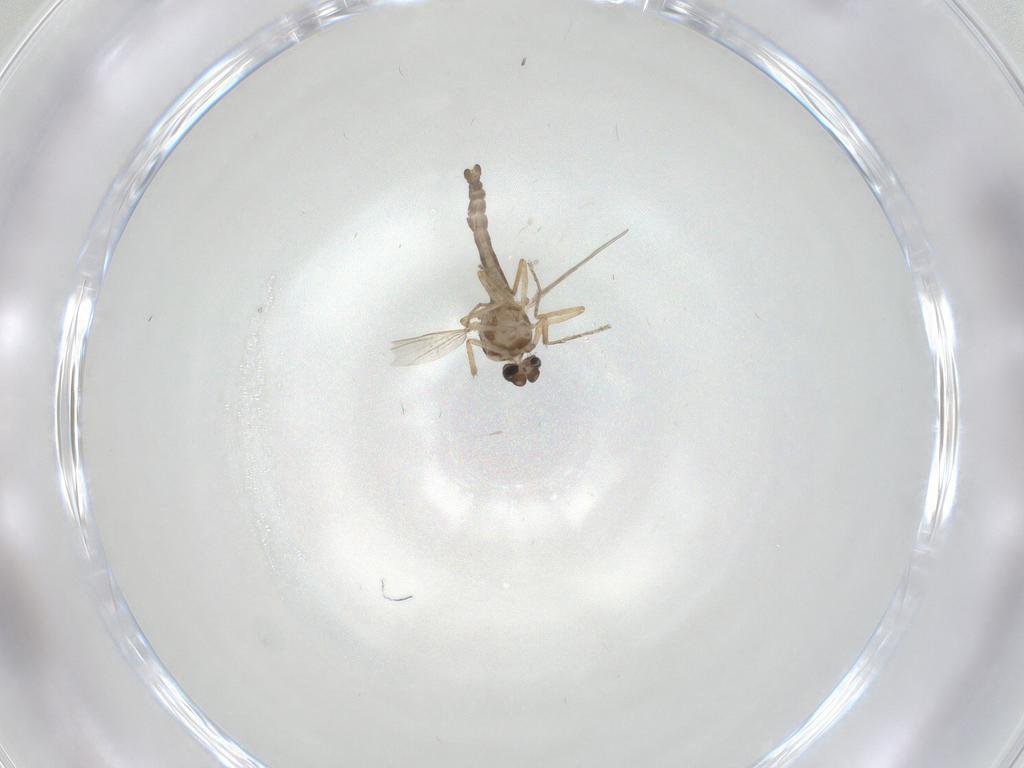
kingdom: Animalia
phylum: Arthropoda
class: Insecta
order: Diptera
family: Ceratopogonidae
